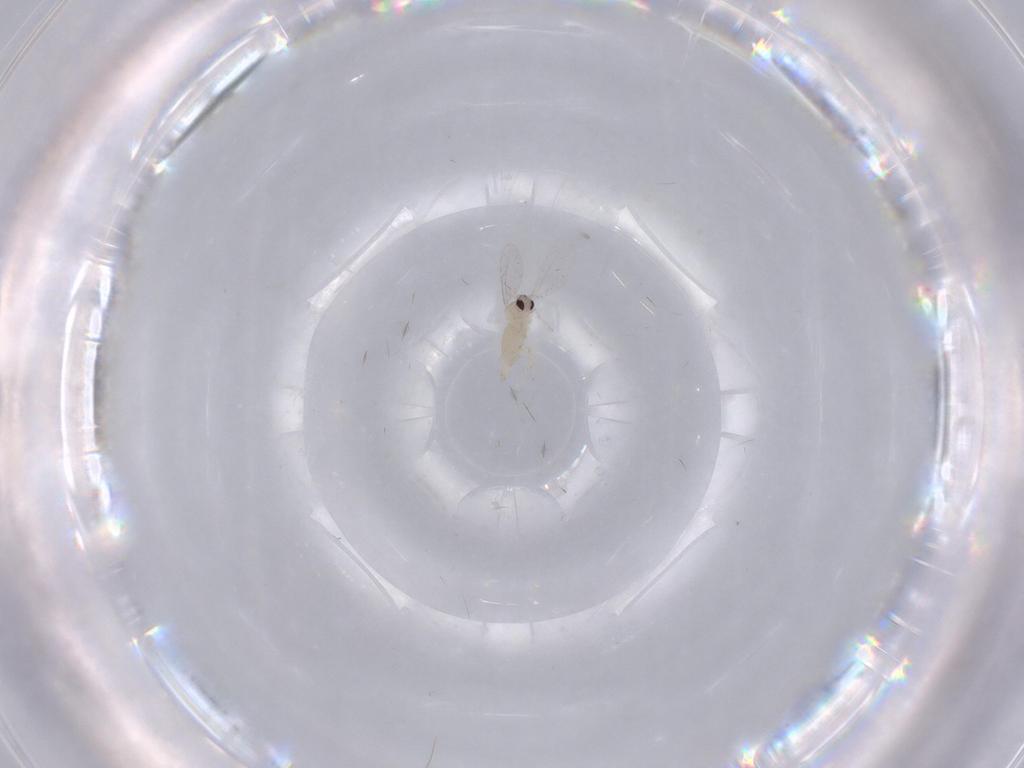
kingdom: Animalia
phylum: Arthropoda
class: Insecta
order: Diptera
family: Cecidomyiidae
